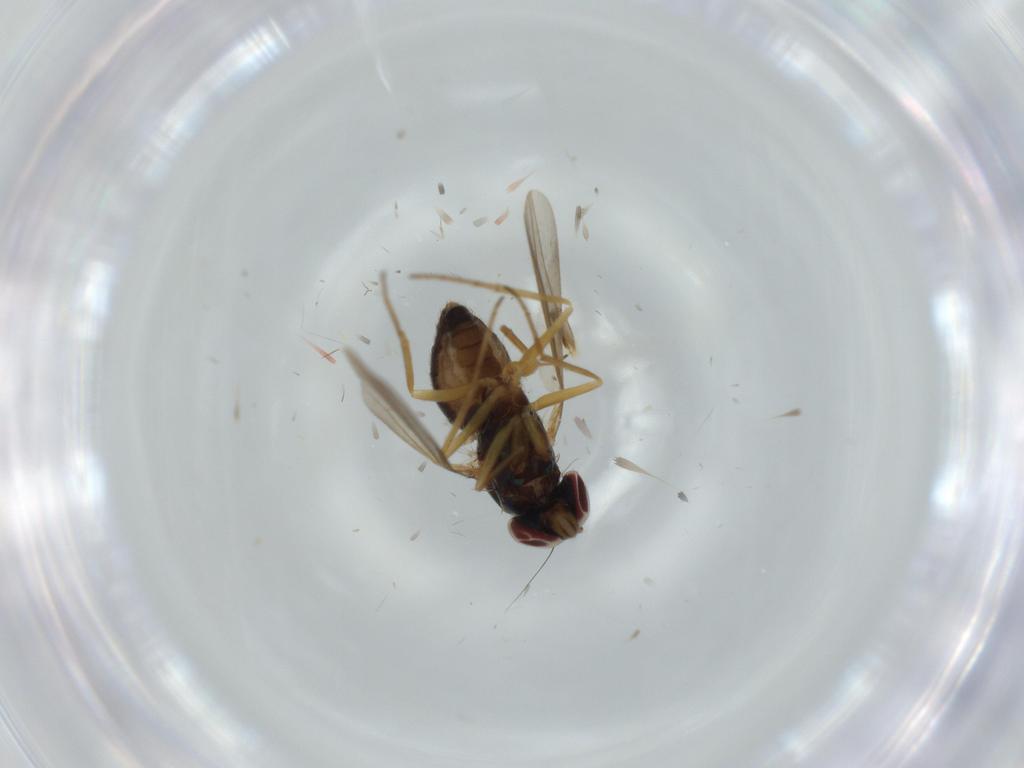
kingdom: Animalia
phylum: Arthropoda
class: Insecta
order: Diptera
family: Dolichopodidae
